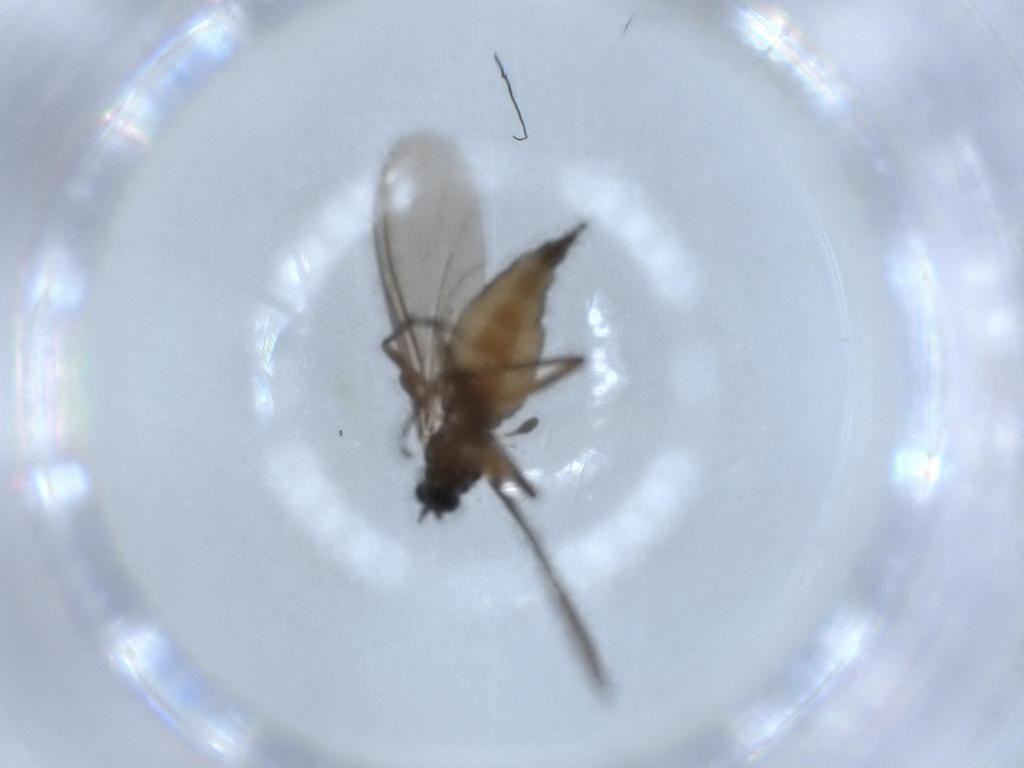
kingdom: Animalia
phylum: Arthropoda
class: Insecta
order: Diptera
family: Sciaridae
